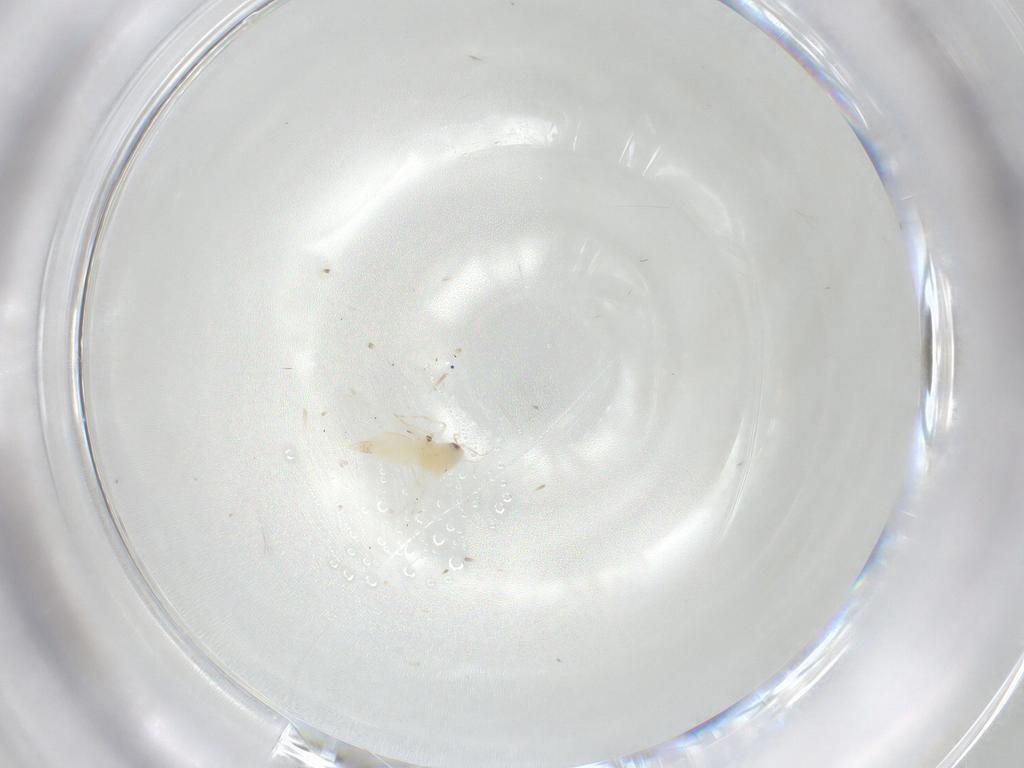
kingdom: Animalia
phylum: Arthropoda
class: Insecta
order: Hemiptera
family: Aleyrodidae
